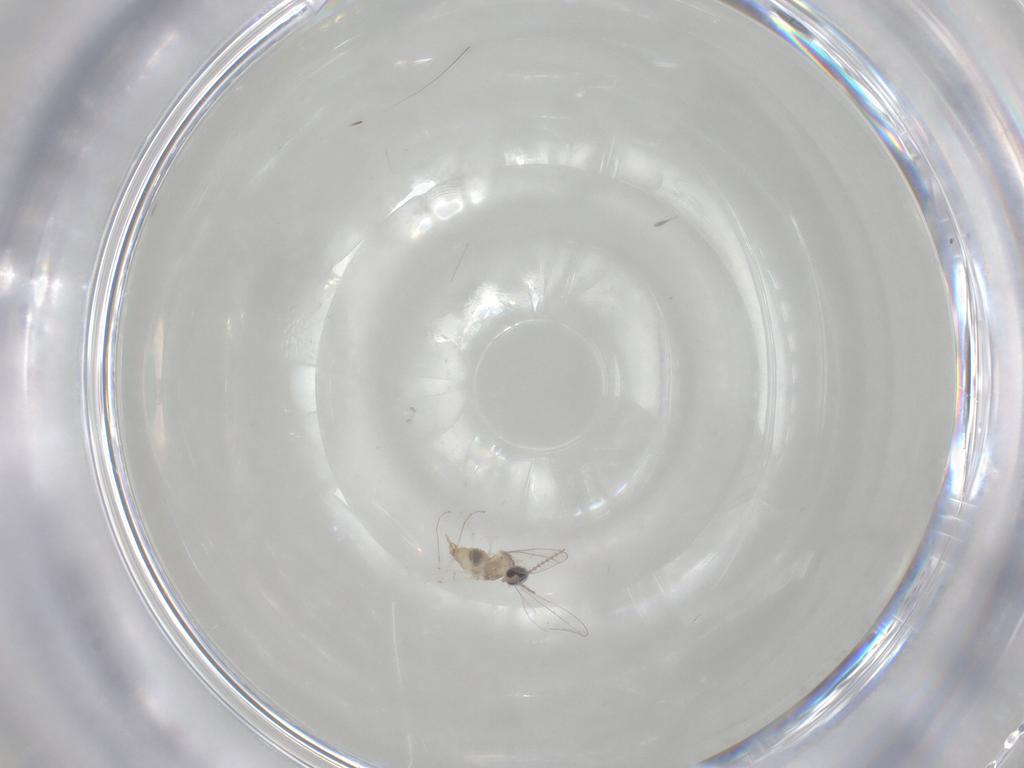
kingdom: Animalia
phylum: Arthropoda
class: Insecta
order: Diptera
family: Cecidomyiidae
